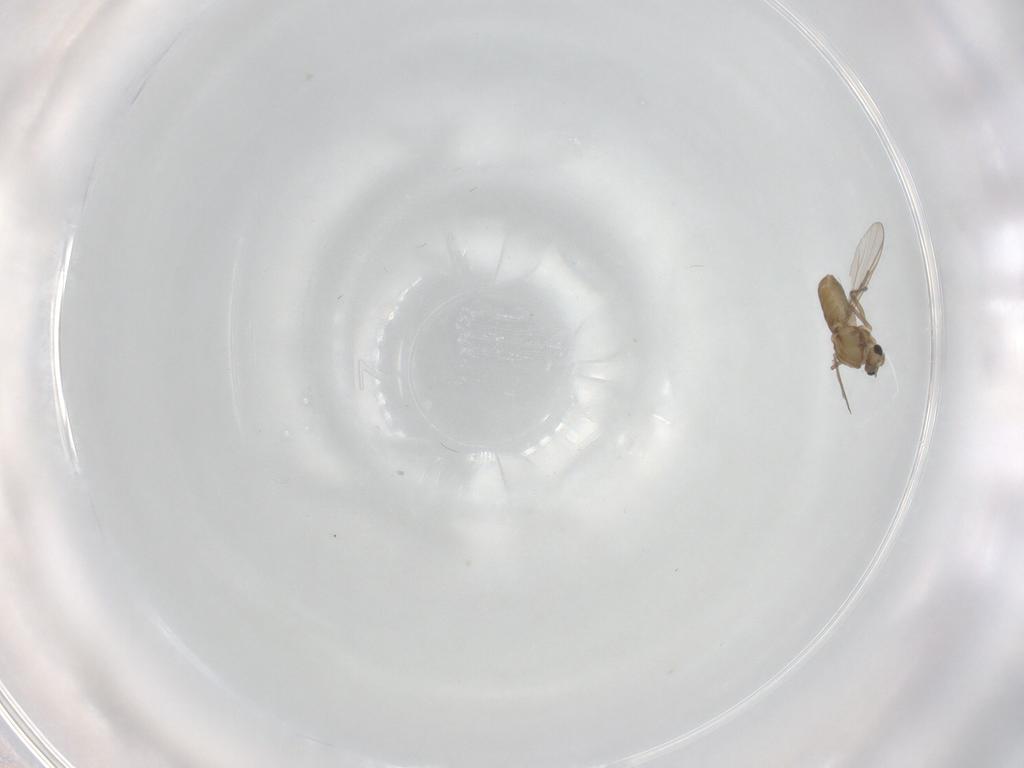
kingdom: Animalia
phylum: Arthropoda
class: Insecta
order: Diptera
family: Chironomidae
